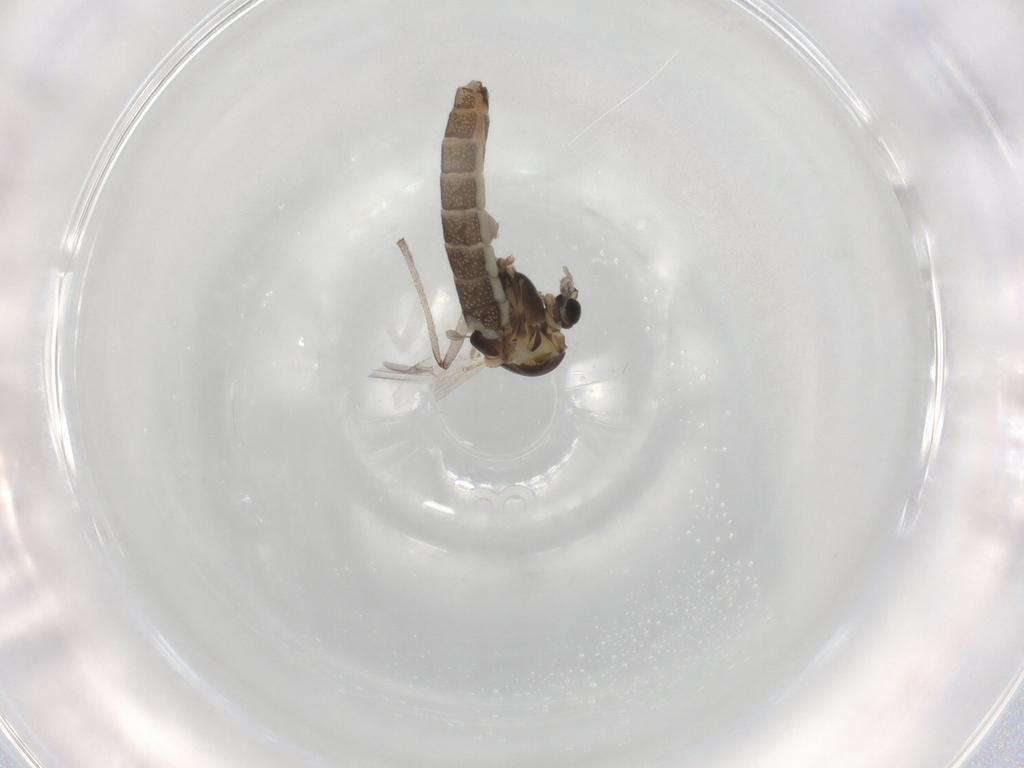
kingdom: Animalia
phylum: Arthropoda
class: Insecta
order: Diptera
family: Chironomidae
